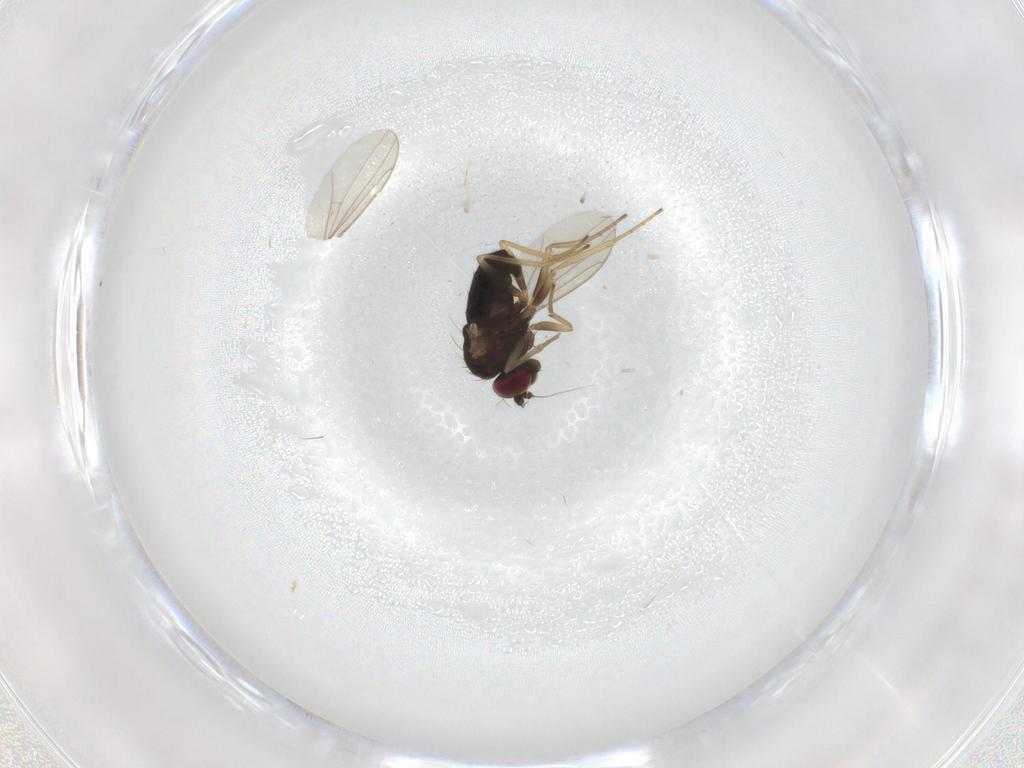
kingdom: Animalia
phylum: Arthropoda
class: Insecta
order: Diptera
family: Dolichopodidae
